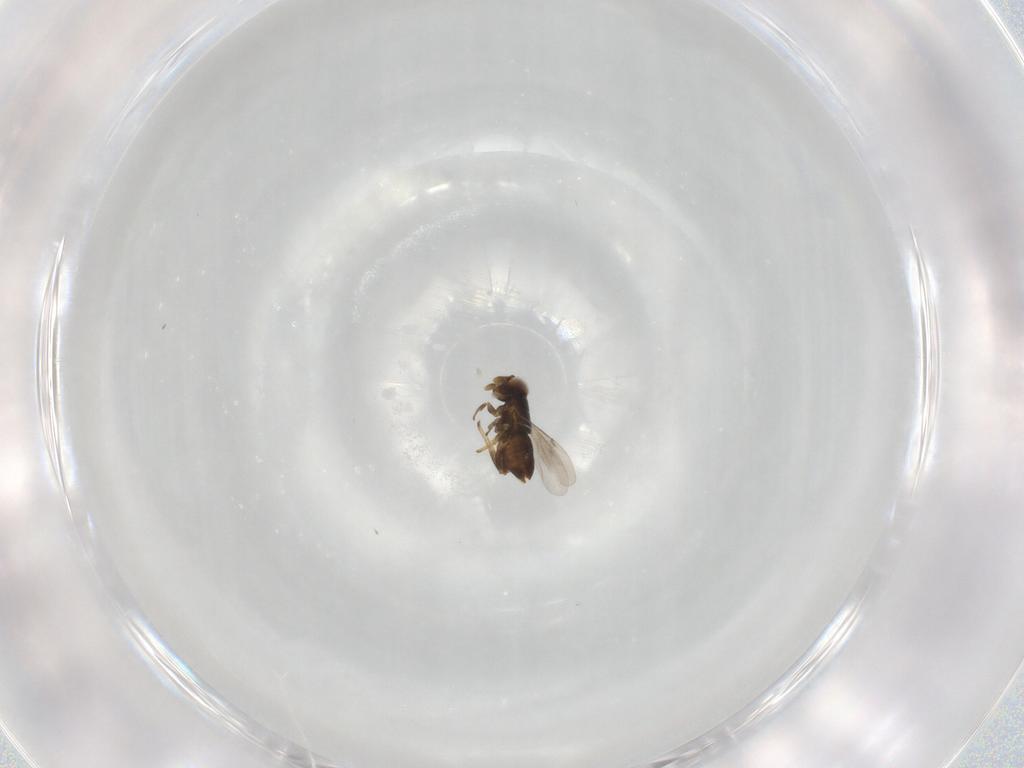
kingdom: Animalia
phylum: Arthropoda
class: Insecta
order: Hymenoptera
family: Mymaridae
